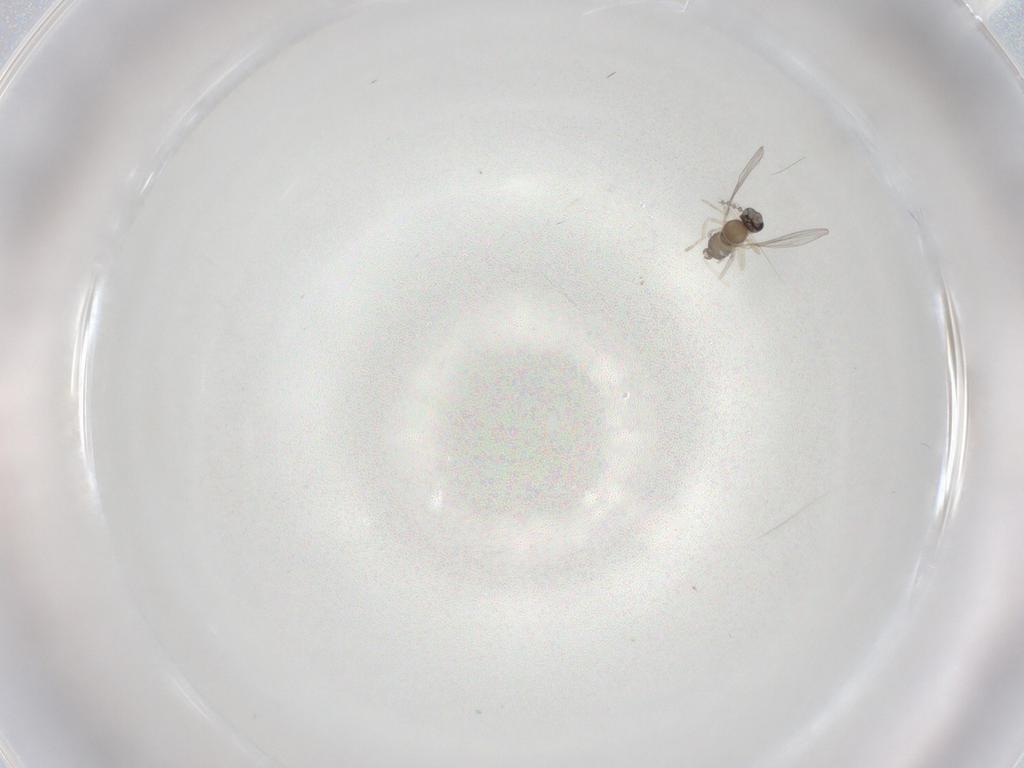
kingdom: Animalia
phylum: Arthropoda
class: Insecta
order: Diptera
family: Cecidomyiidae
